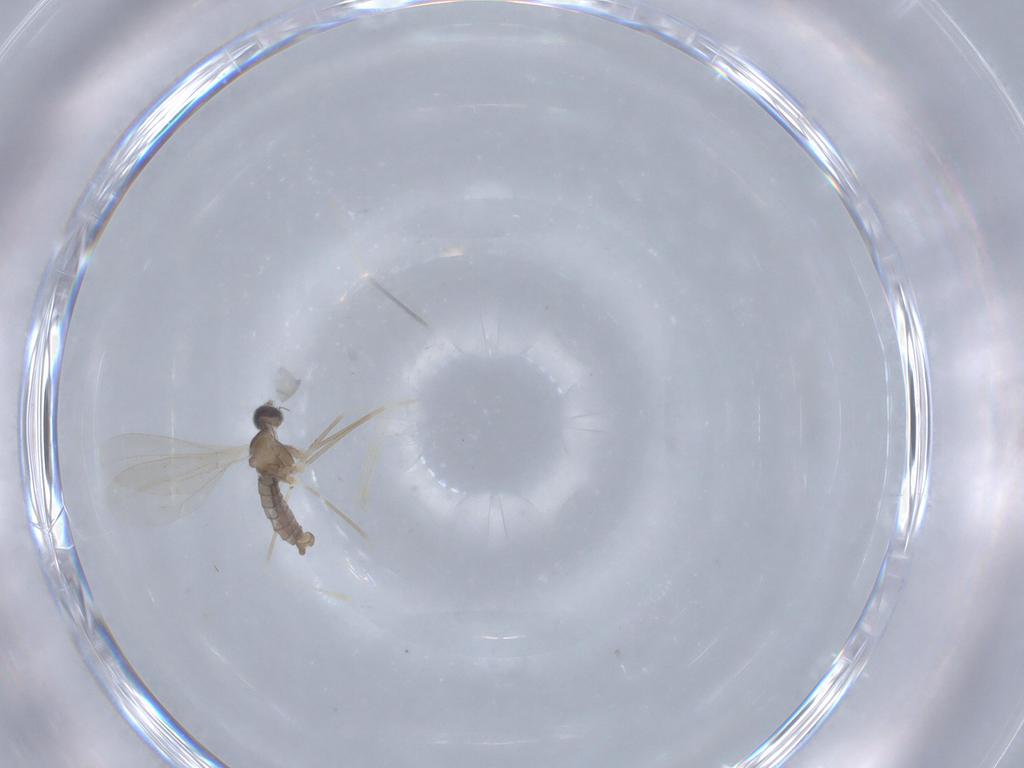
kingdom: Animalia
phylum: Arthropoda
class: Insecta
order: Diptera
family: Cecidomyiidae
